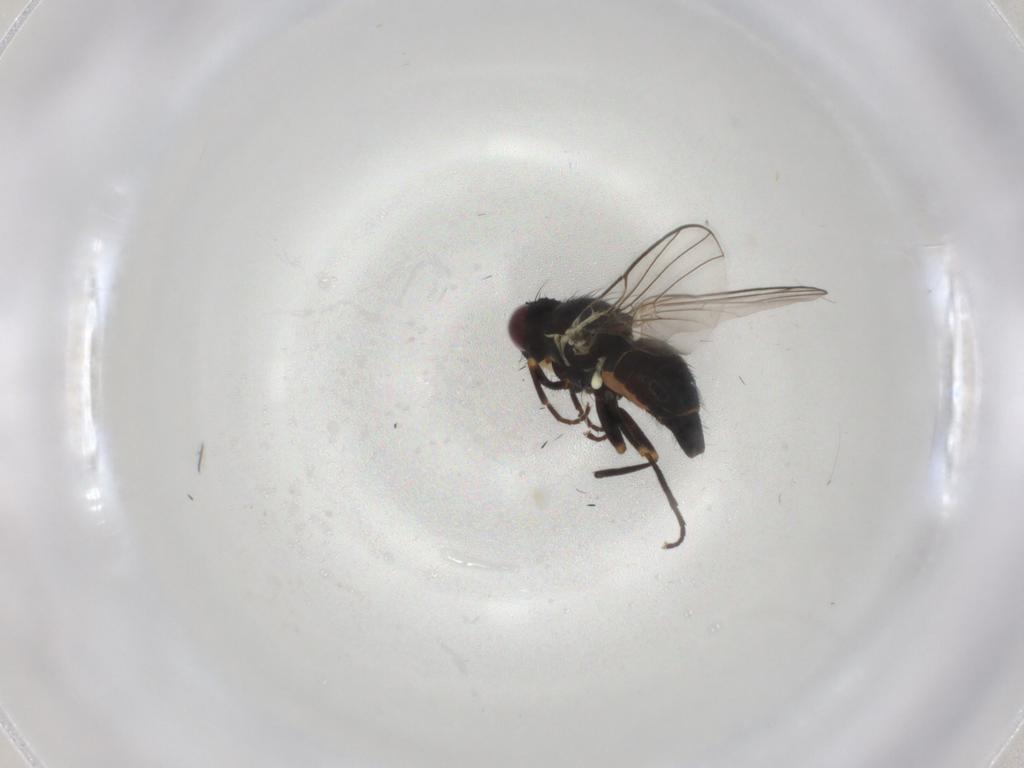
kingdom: Animalia
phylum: Arthropoda
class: Insecta
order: Diptera
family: Agromyzidae
